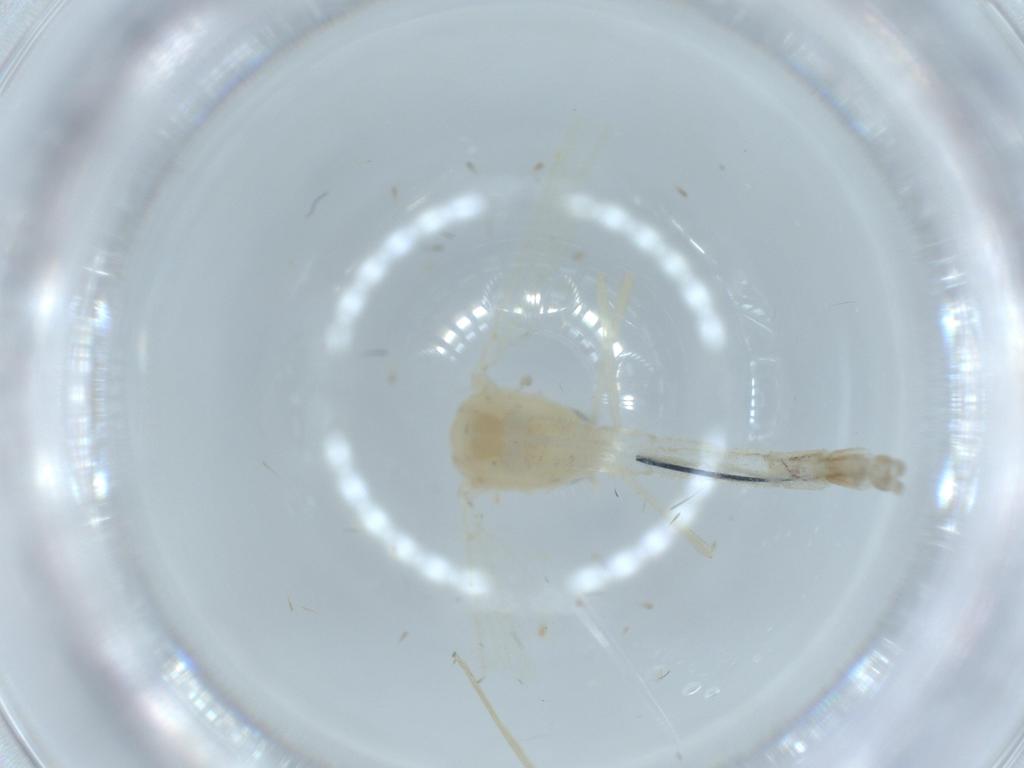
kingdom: Animalia
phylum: Arthropoda
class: Insecta
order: Diptera
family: Chironomidae
